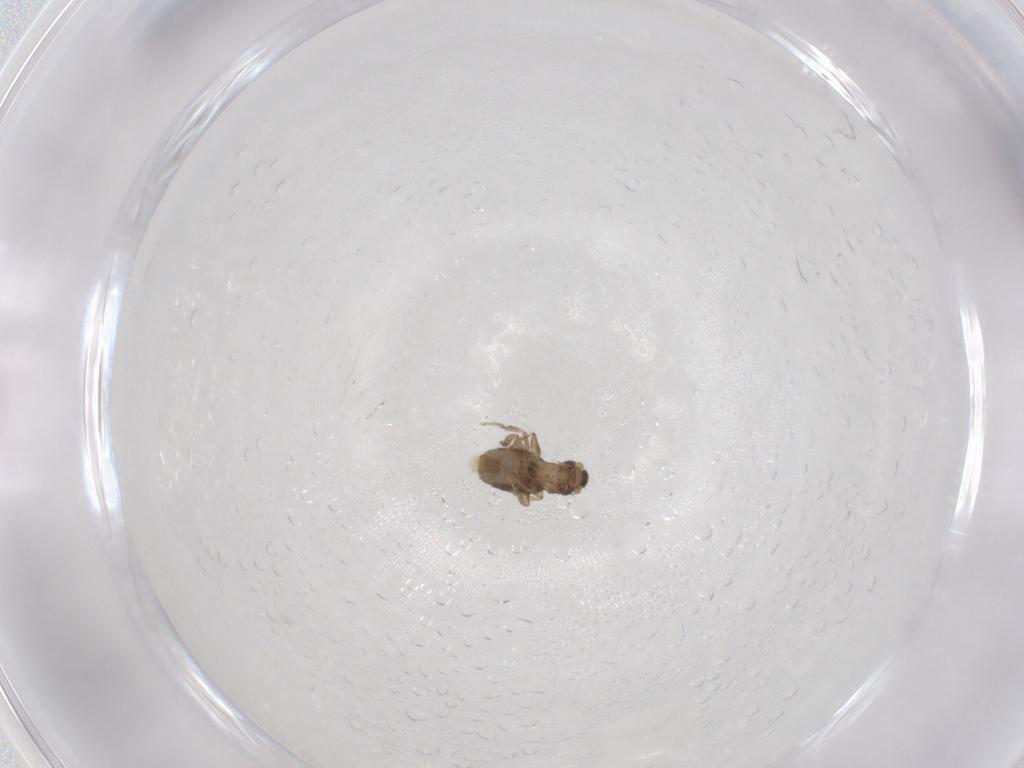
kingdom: Animalia
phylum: Arthropoda
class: Insecta
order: Diptera
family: Phoridae
